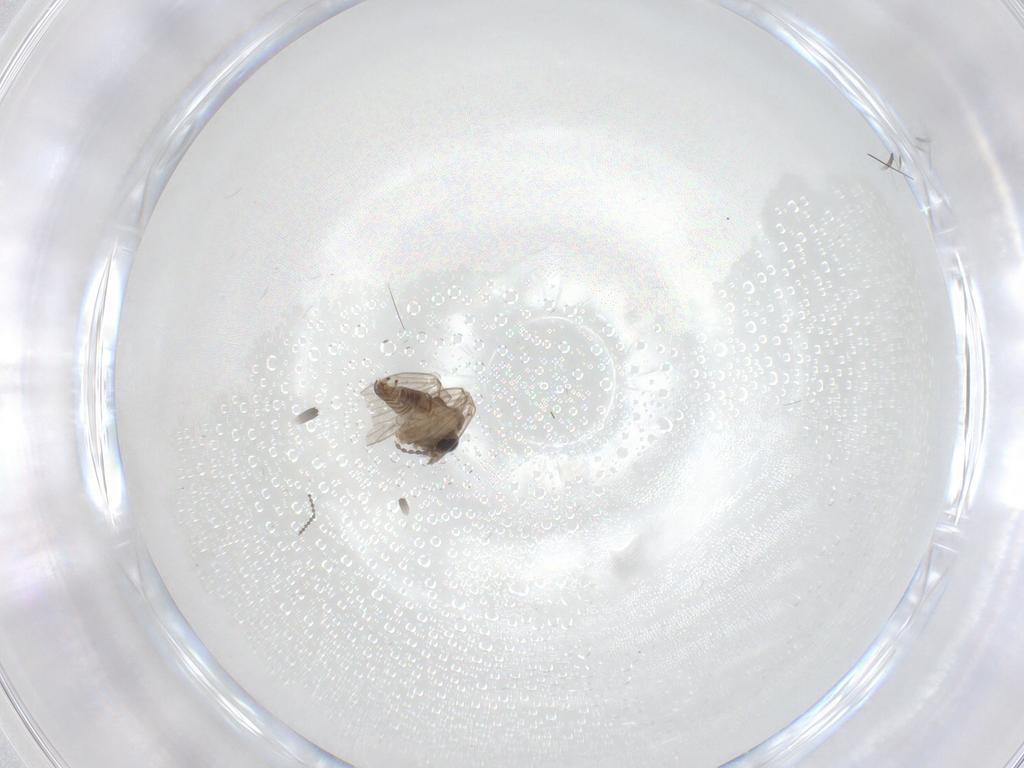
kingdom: Animalia
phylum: Arthropoda
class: Insecta
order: Diptera
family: Cecidomyiidae
